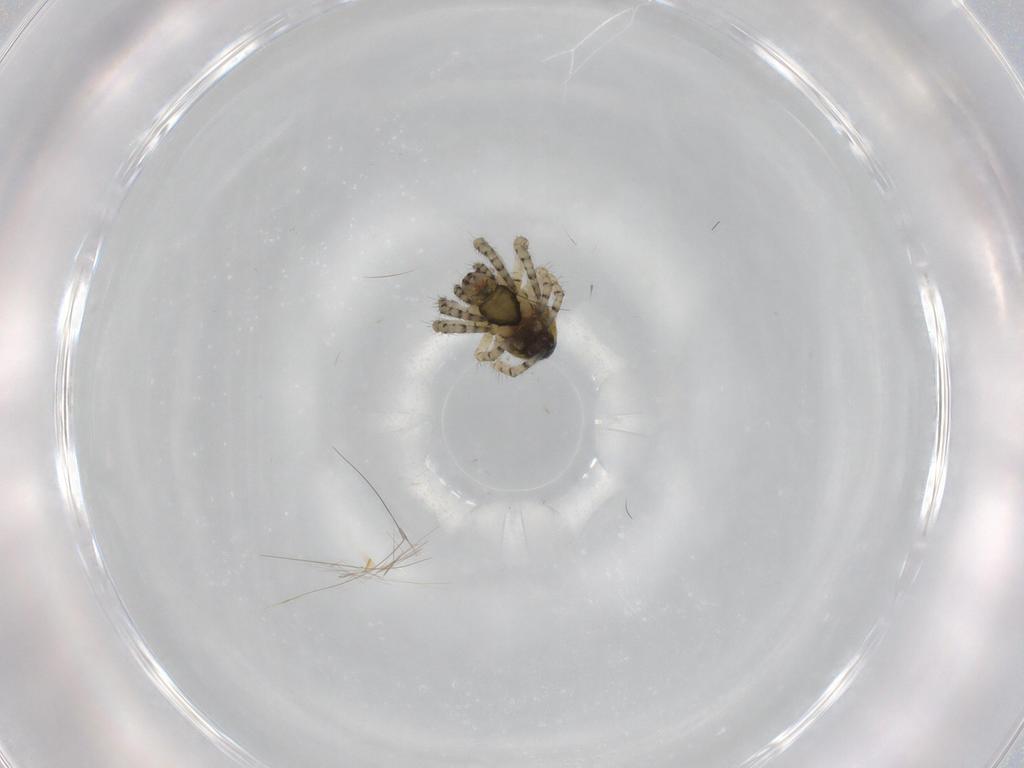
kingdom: Animalia
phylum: Arthropoda
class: Arachnida
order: Araneae
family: Araneidae
